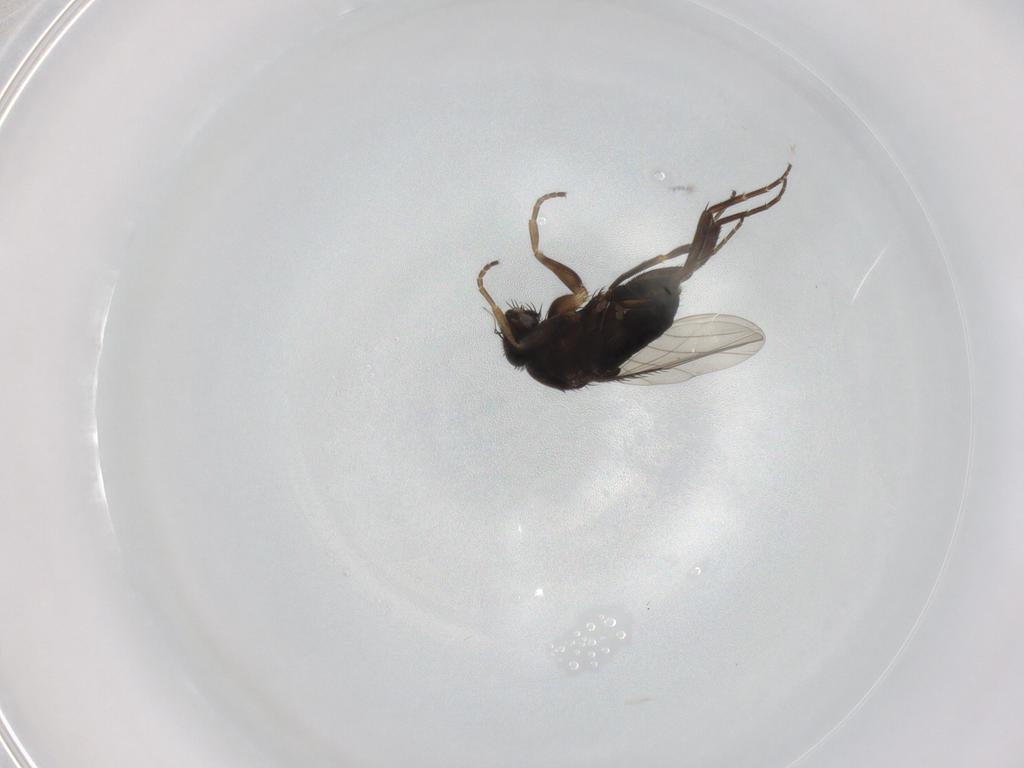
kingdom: Animalia
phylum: Arthropoda
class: Insecta
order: Diptera
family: Phoridae
